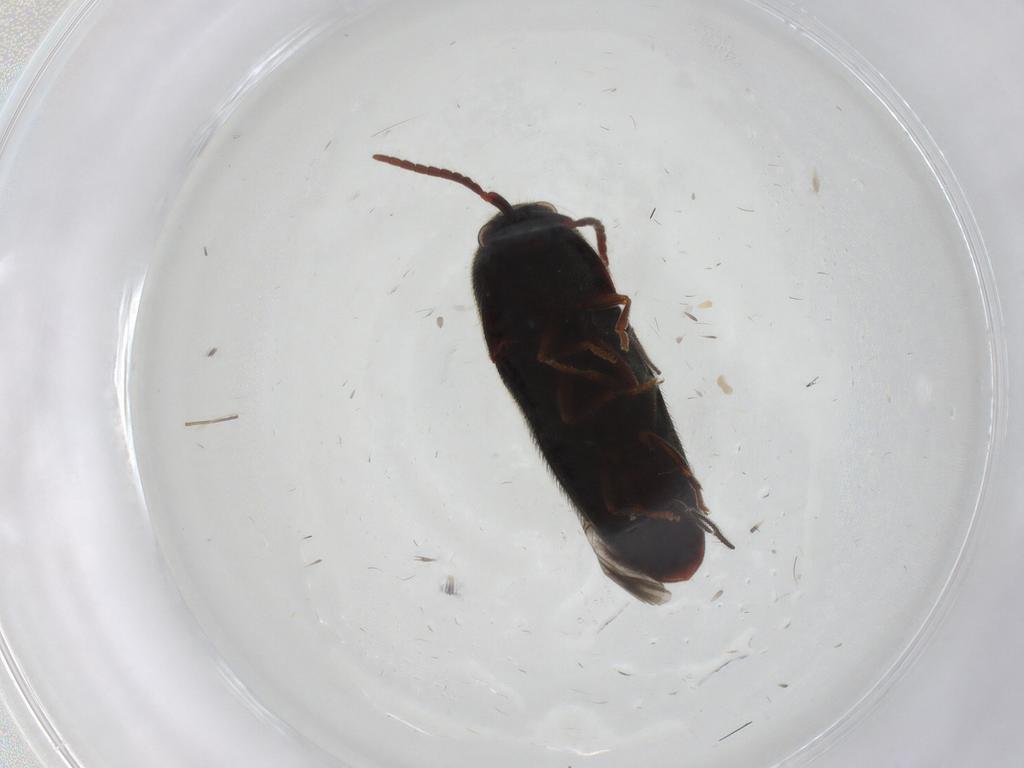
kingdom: Animalia
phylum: Arthropoda
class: Insecta
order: Coleoptera
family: Eucnemidae
